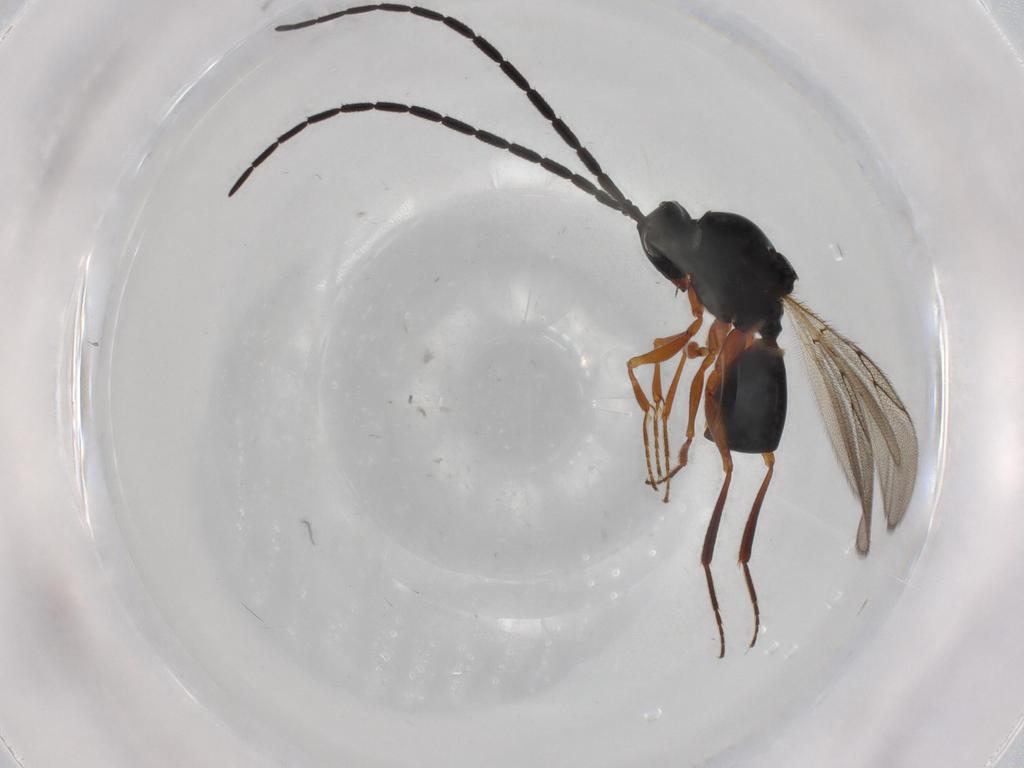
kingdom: Animalia
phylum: Arthropoda
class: Insecta
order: Hymenoptera
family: Figitidae
